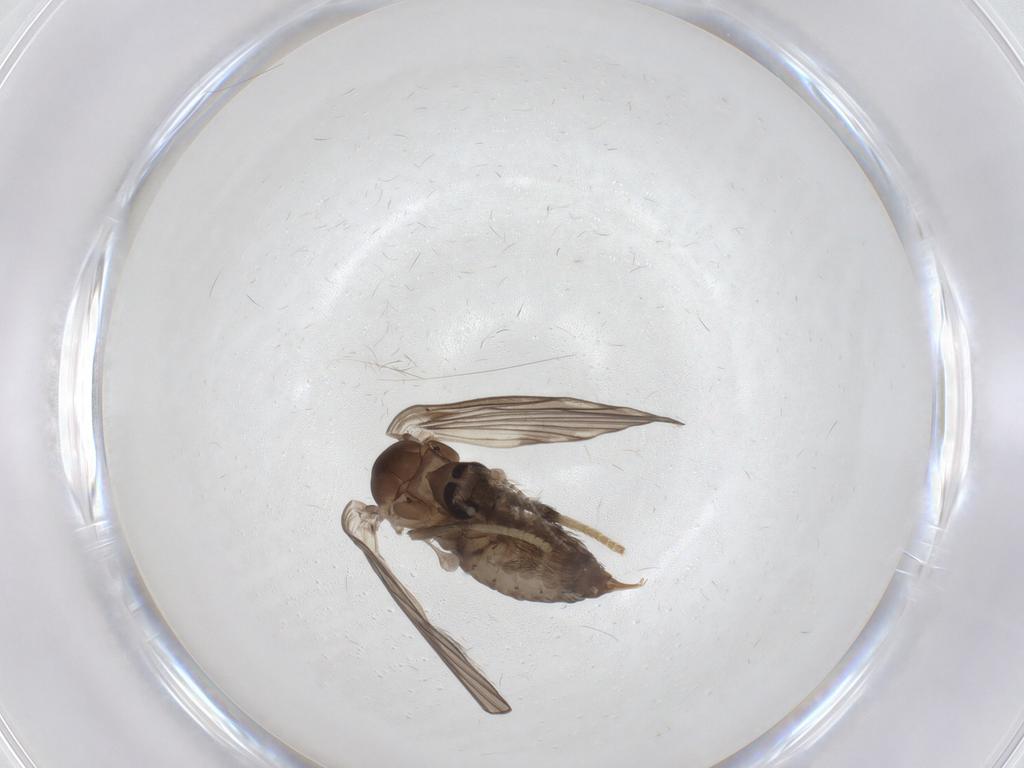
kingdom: Animalia
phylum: Arthropoda
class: Insecta
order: Diptera
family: Psychodidae
